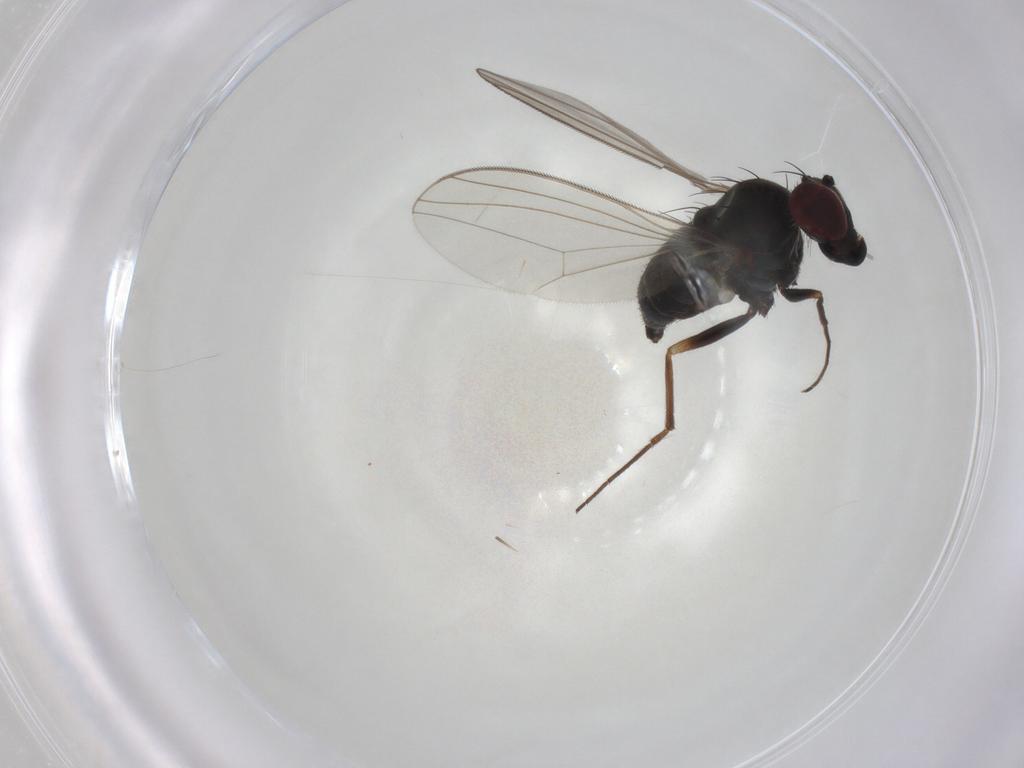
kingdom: Animalia
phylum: Arthropoda
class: Insecta
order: Diptera
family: Dolichopodidae
